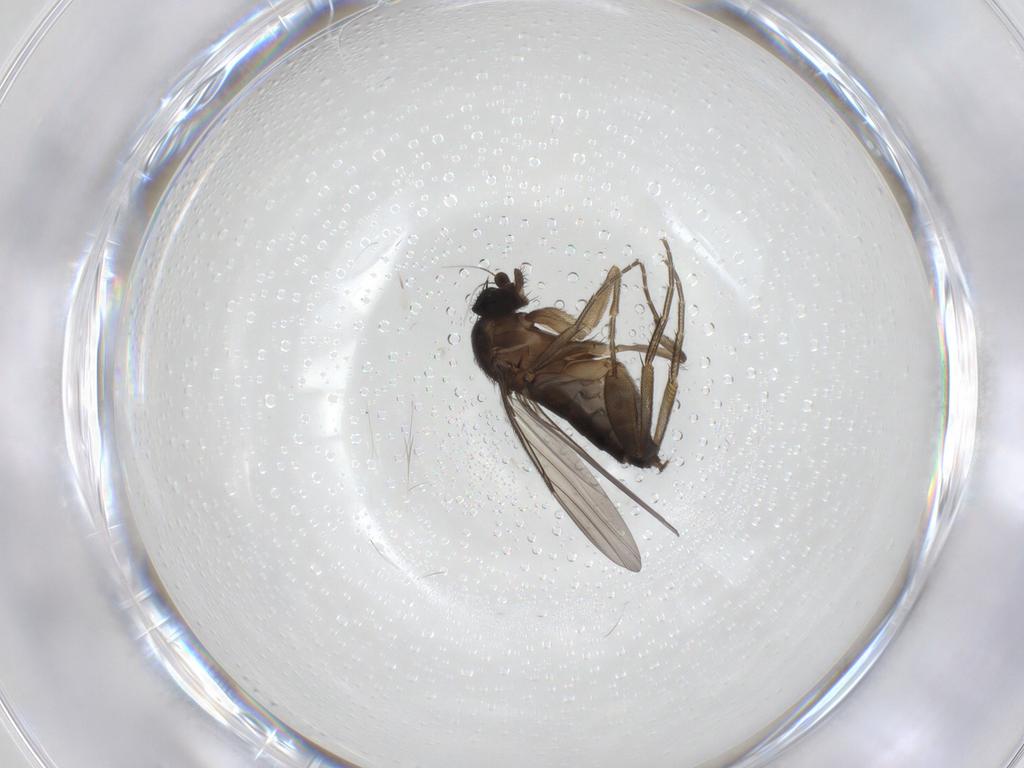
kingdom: Animalia
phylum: Arthropoda
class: Insecta
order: Diptera
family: Phoridae
